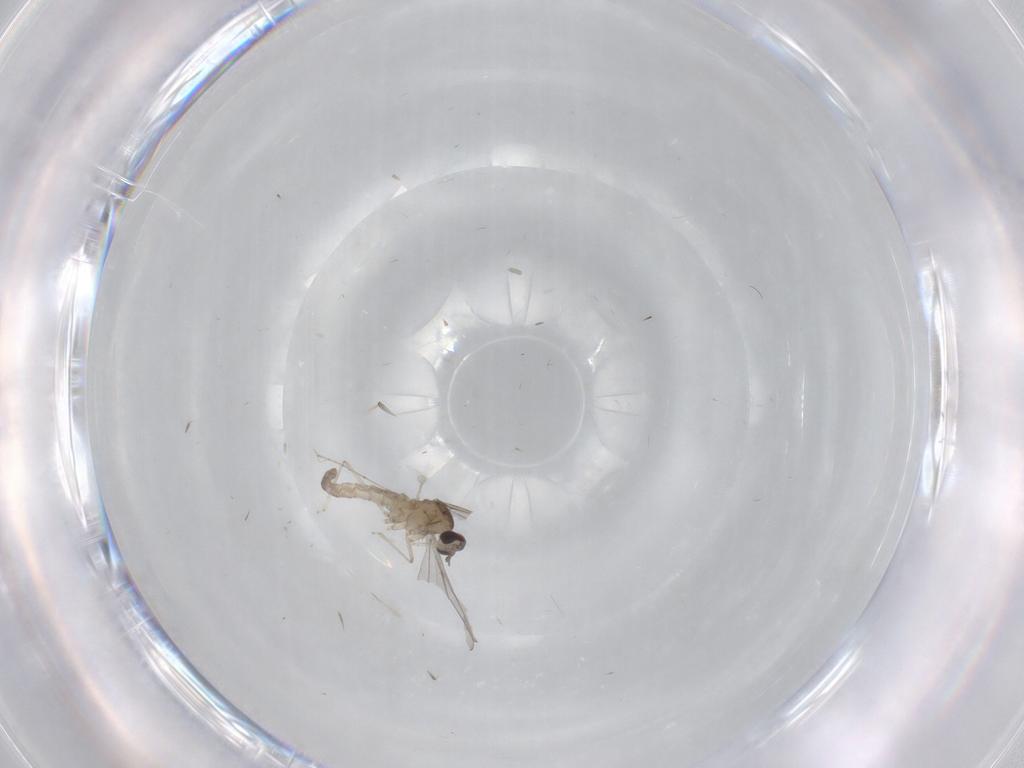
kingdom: Animalia
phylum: Arthropoda
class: Insecta
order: Diptera
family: Cecidomyiidae
